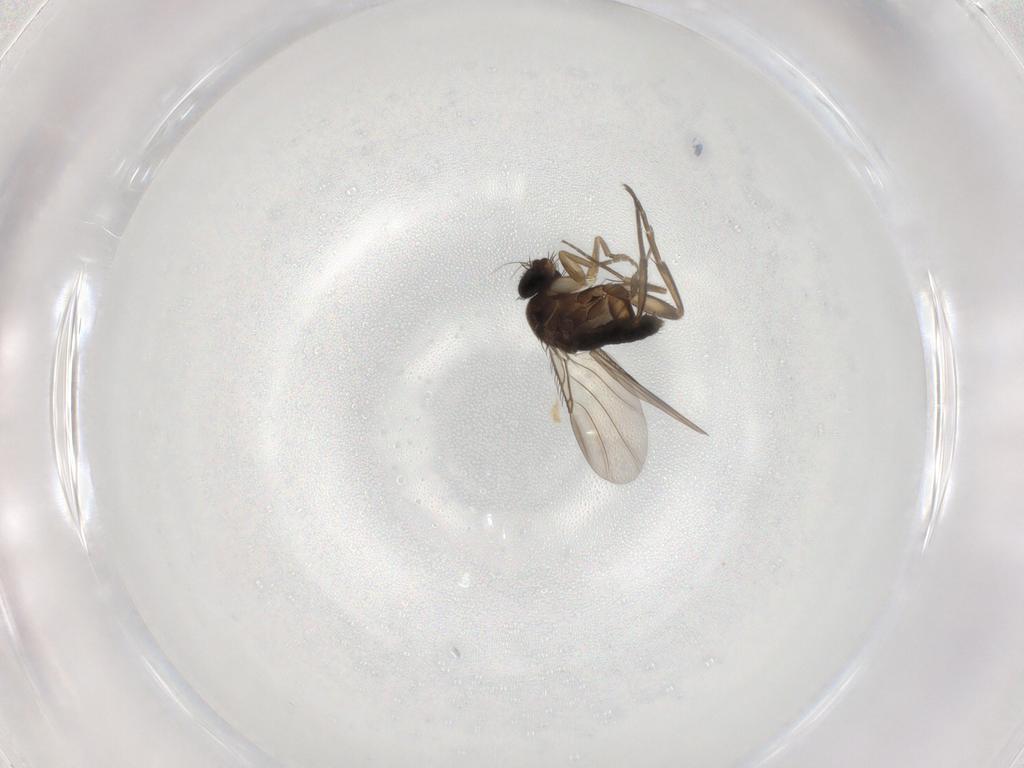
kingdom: Animalia
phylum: Arthropoda
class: Insecta
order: Diptera
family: Phoridae
